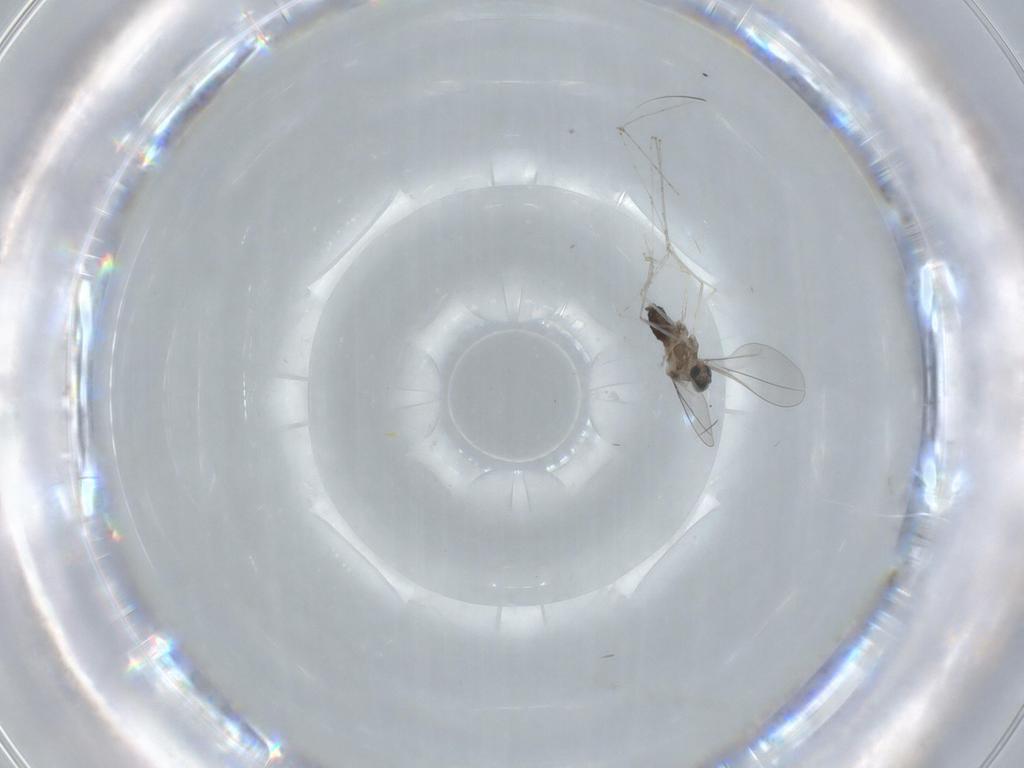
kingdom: Animalia
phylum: Arthropoda
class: Insecta
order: Diptera
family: Cecidomyiidae
